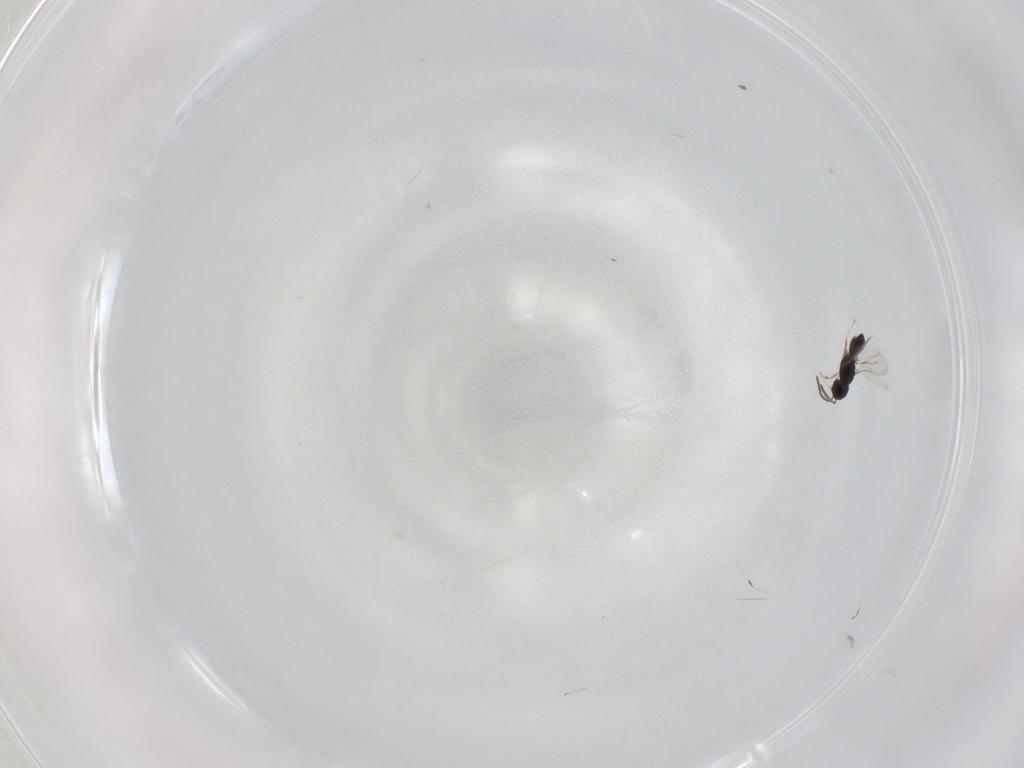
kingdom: Animalia
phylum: Arthropoda
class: Insecta
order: Hymenoptera
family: Scelionidae
